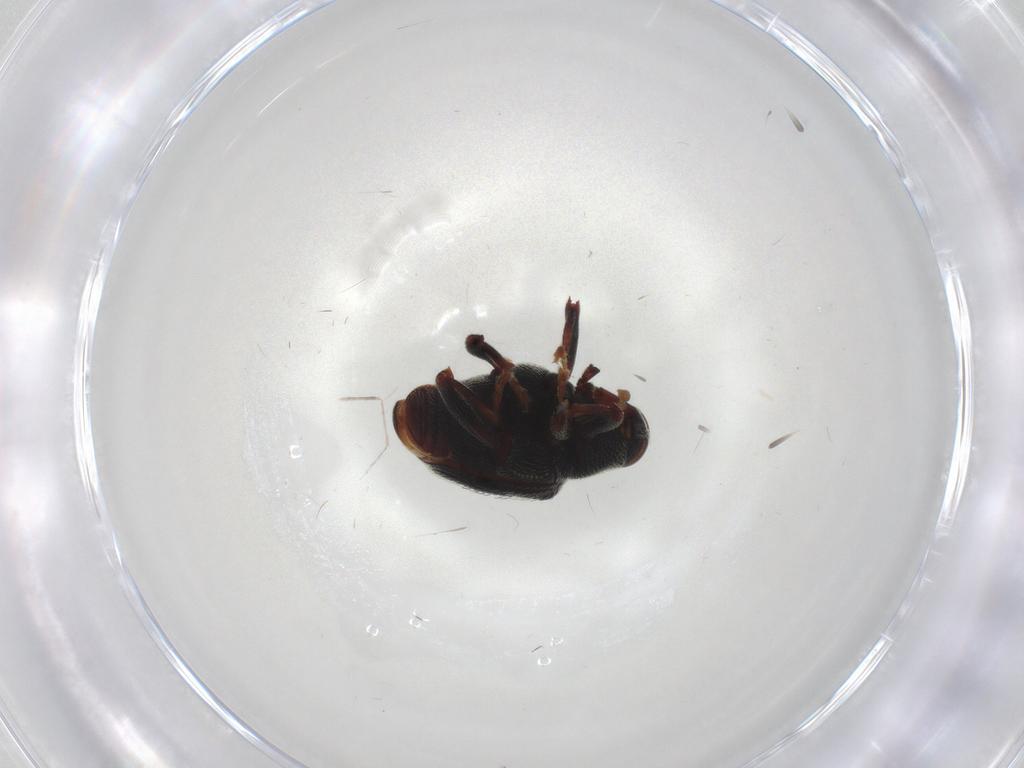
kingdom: Animalia
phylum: Arthropoda
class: Insecta
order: Coleoptera
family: Curculionidae
